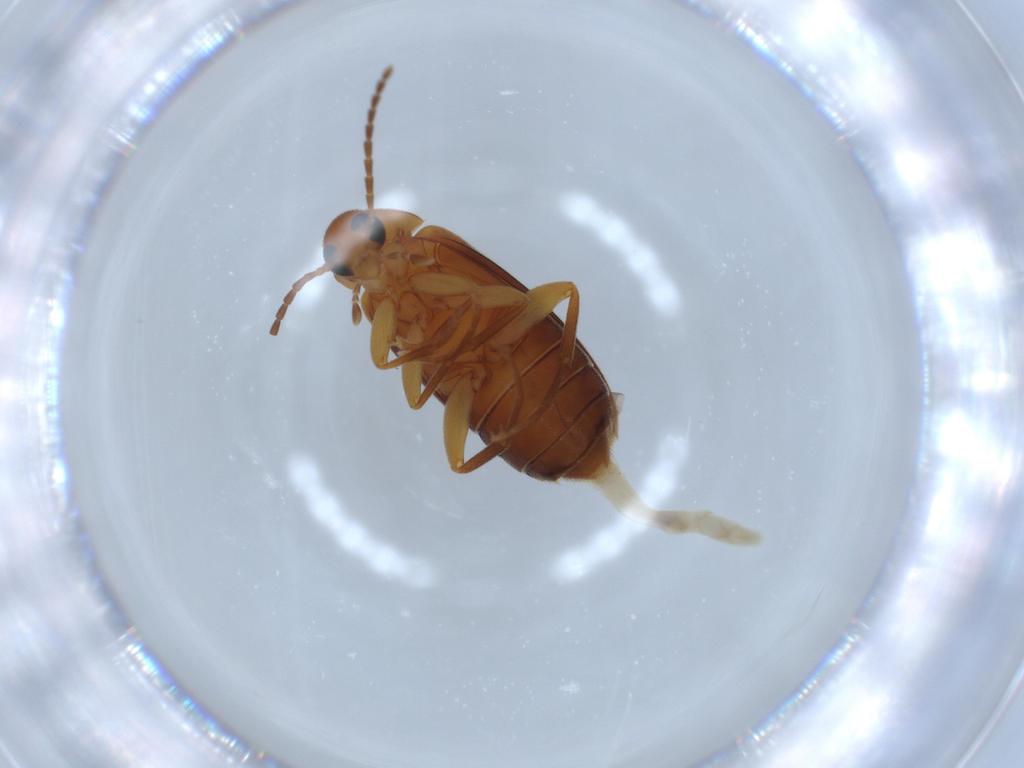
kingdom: Animalia
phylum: Arthropoda
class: Insecta
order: Coleoptera
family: Scraptiidae
